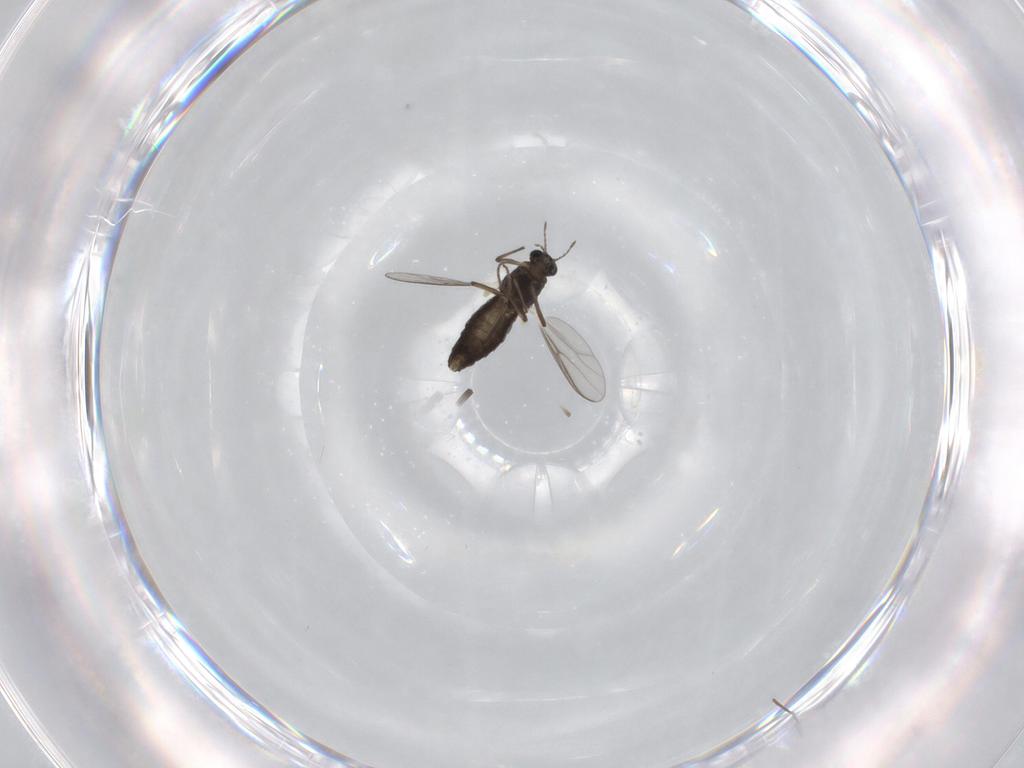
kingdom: Animalia
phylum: Arthropoda
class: Insecta
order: Diptera
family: Chironomidae
